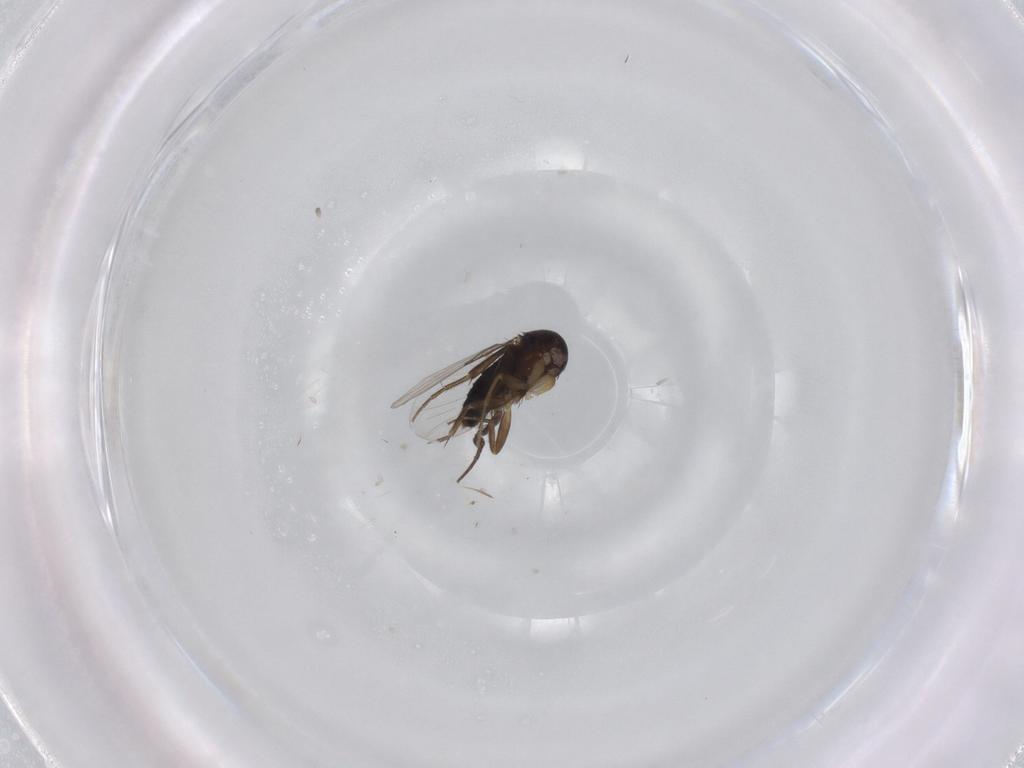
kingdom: Animalia
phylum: Arthropoda
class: Insecta
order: Diptera
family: Phoridae
